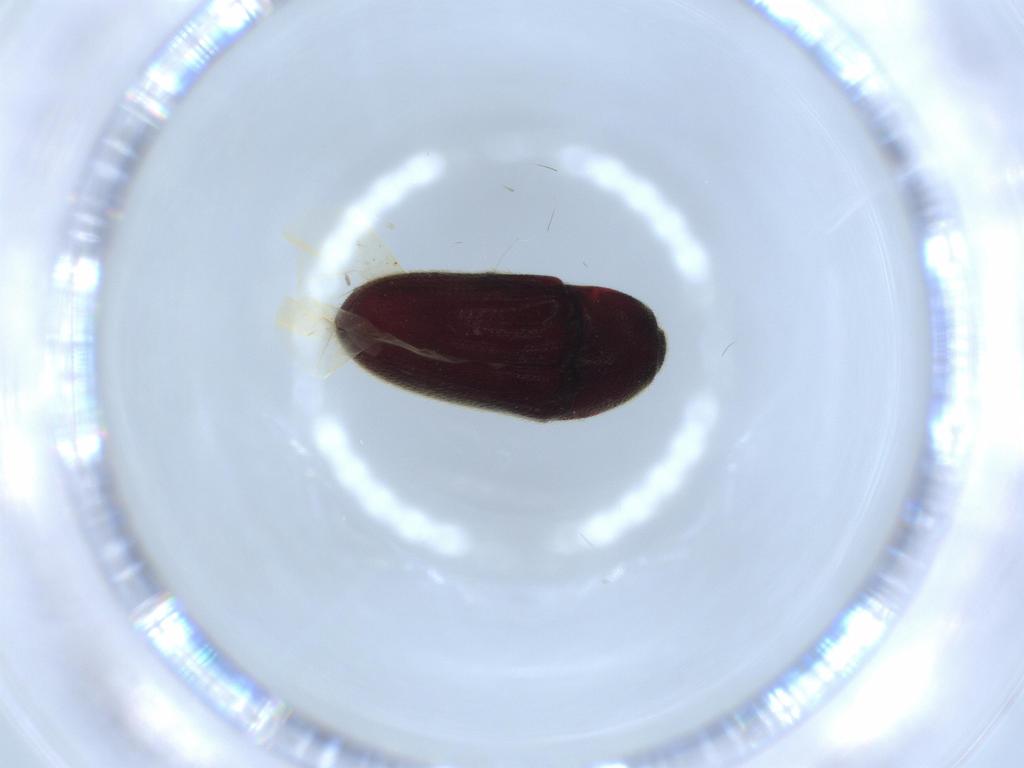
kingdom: Animalia
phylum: Arthropoda
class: Insecta
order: Coleoptera
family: Throscidae
